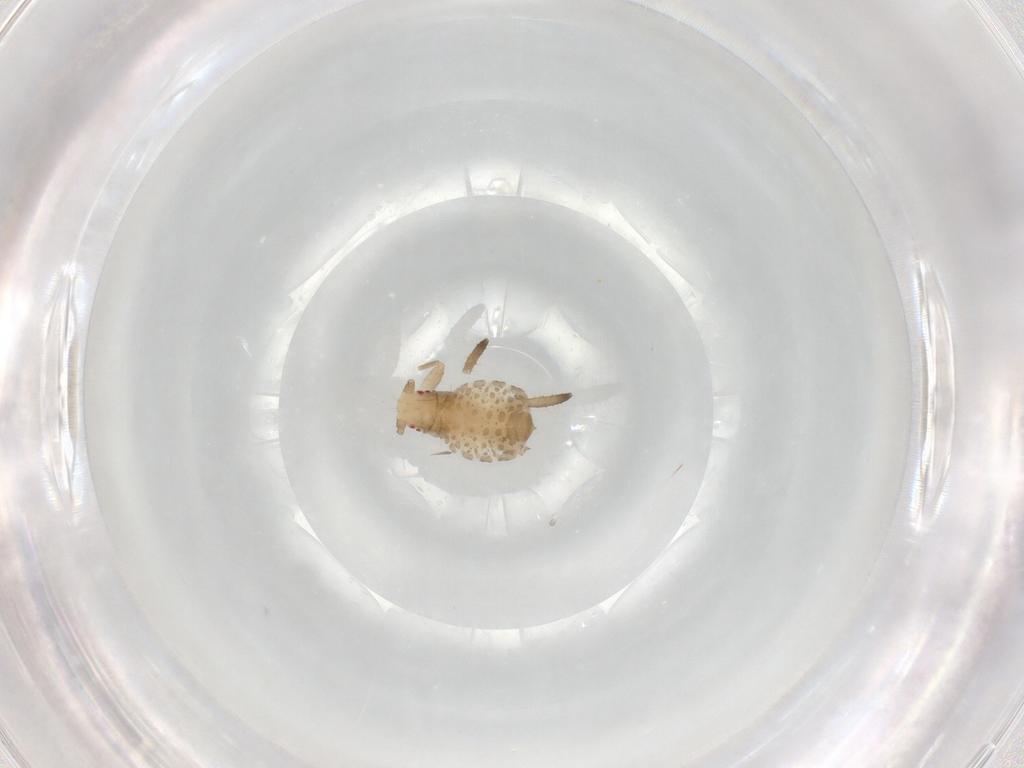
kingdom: Animalia
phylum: Arthropoda
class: Insecta
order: Hemiptera
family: Aphididae
